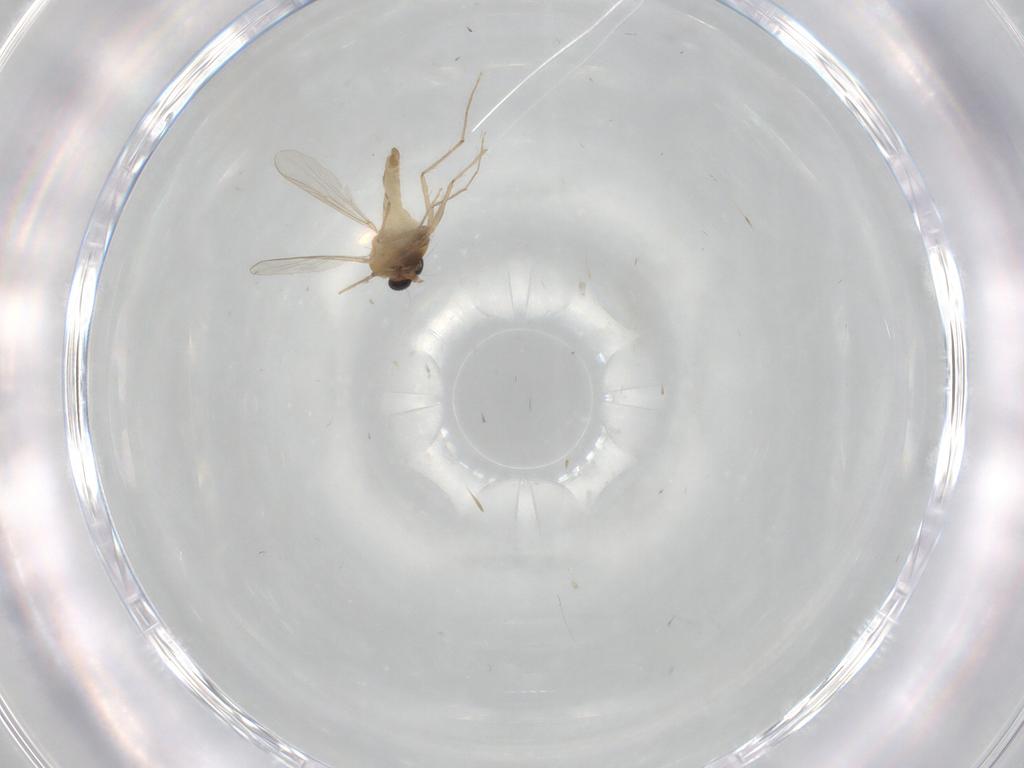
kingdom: Animalia
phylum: Arthropoda
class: Insecta
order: Diptera
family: Chironomidae
